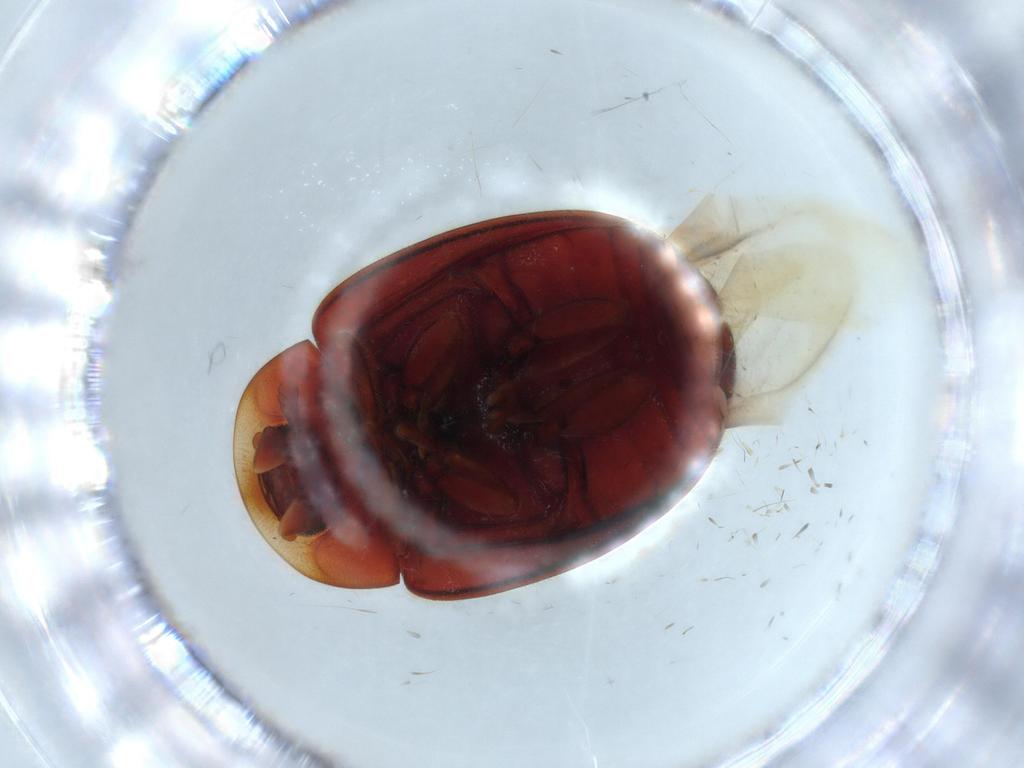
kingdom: Animalia
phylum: Arthropoda
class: Insecta
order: Coleoptera
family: Coccinellidae
